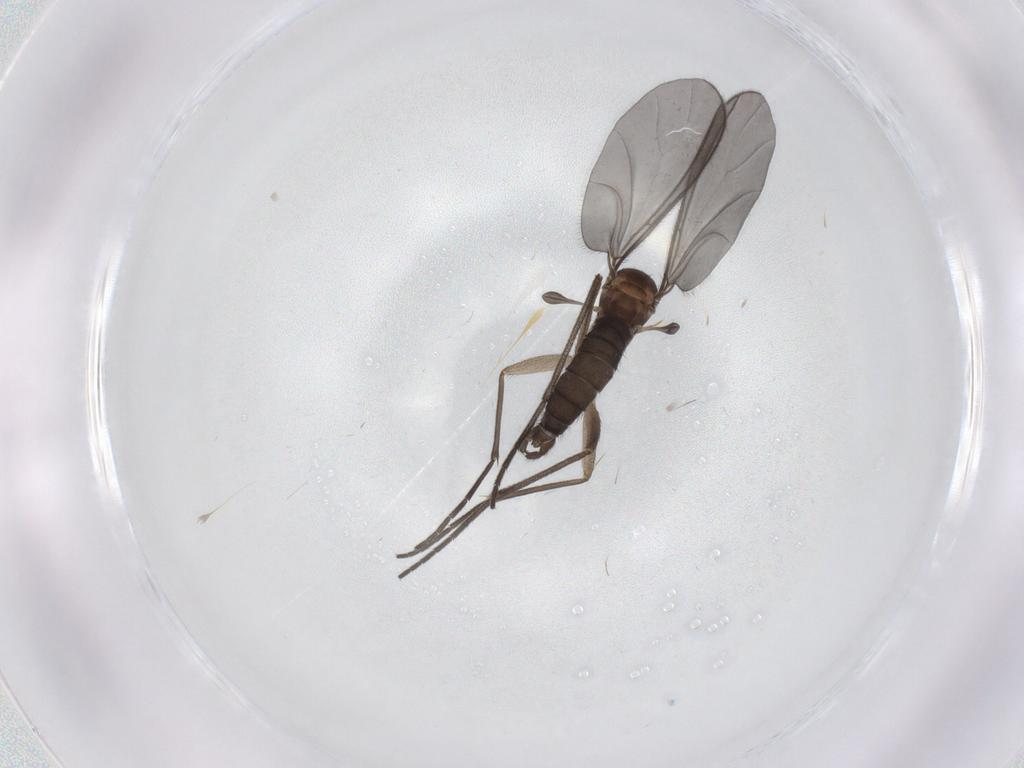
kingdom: Animalia
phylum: Arthropoda
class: Insecta
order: Diptera
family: Sciaridae
